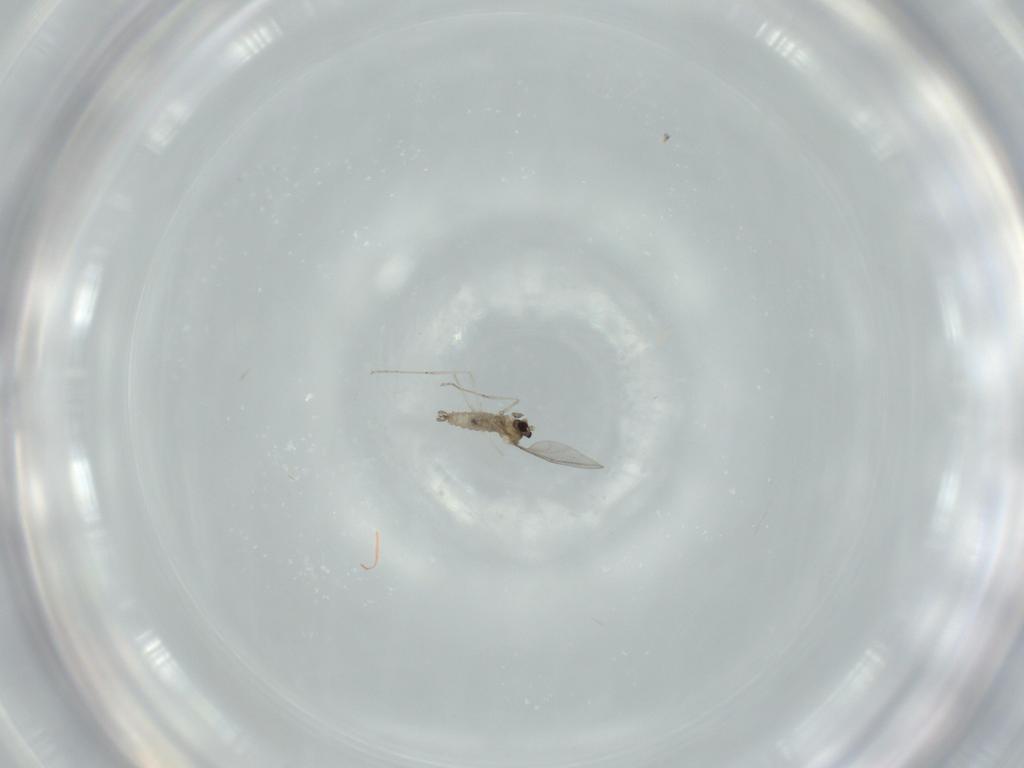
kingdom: Animalia
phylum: Arthropoda
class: Insecta
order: Diptera
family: Cecidomyiidae
